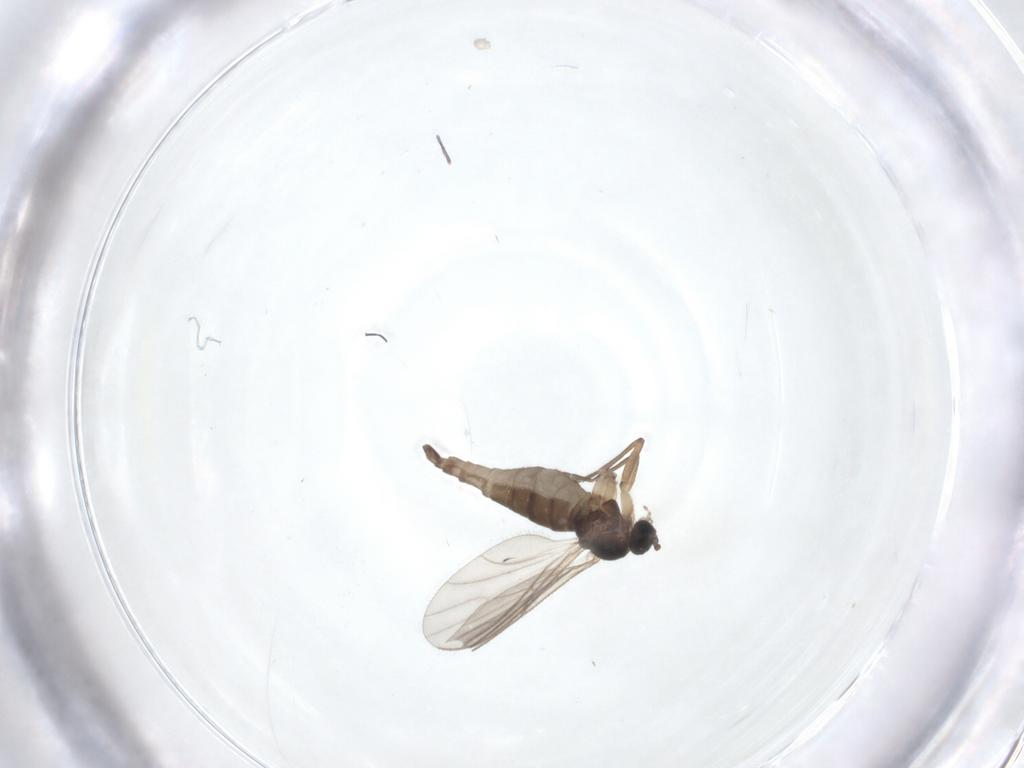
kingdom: Animalia
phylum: Arthropoda
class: Insecta
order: Diptera
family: Sciaridae
